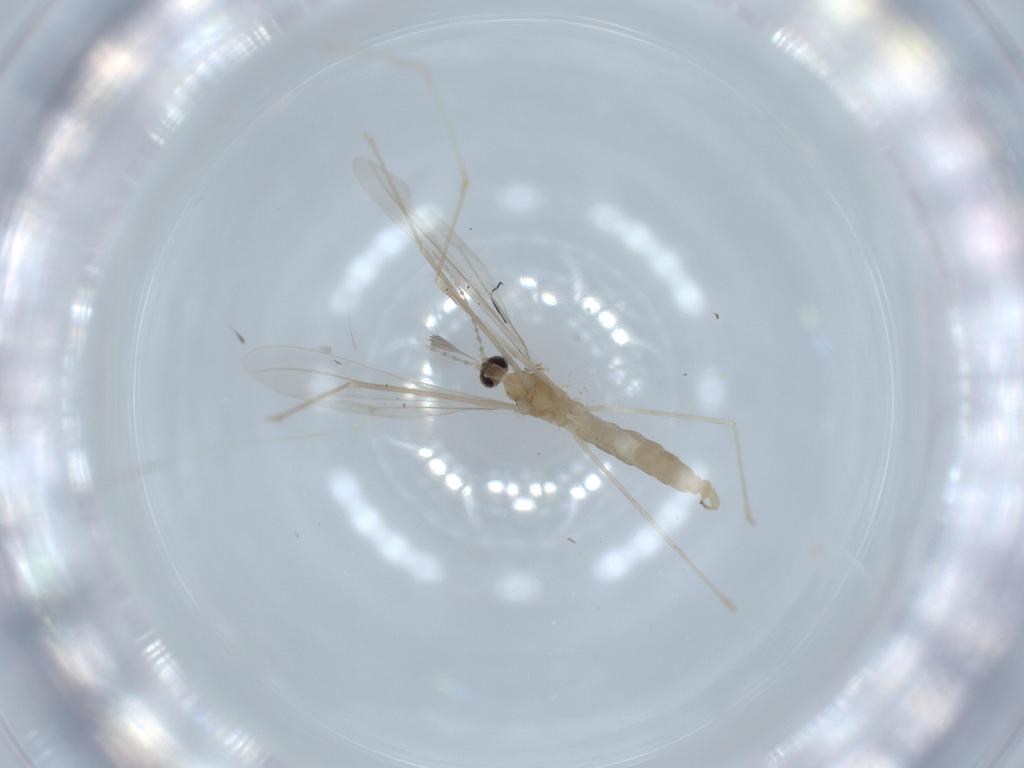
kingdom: Animalia
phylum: Arthropoda
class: Insecta
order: Diptera
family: Cecidomyiidae
